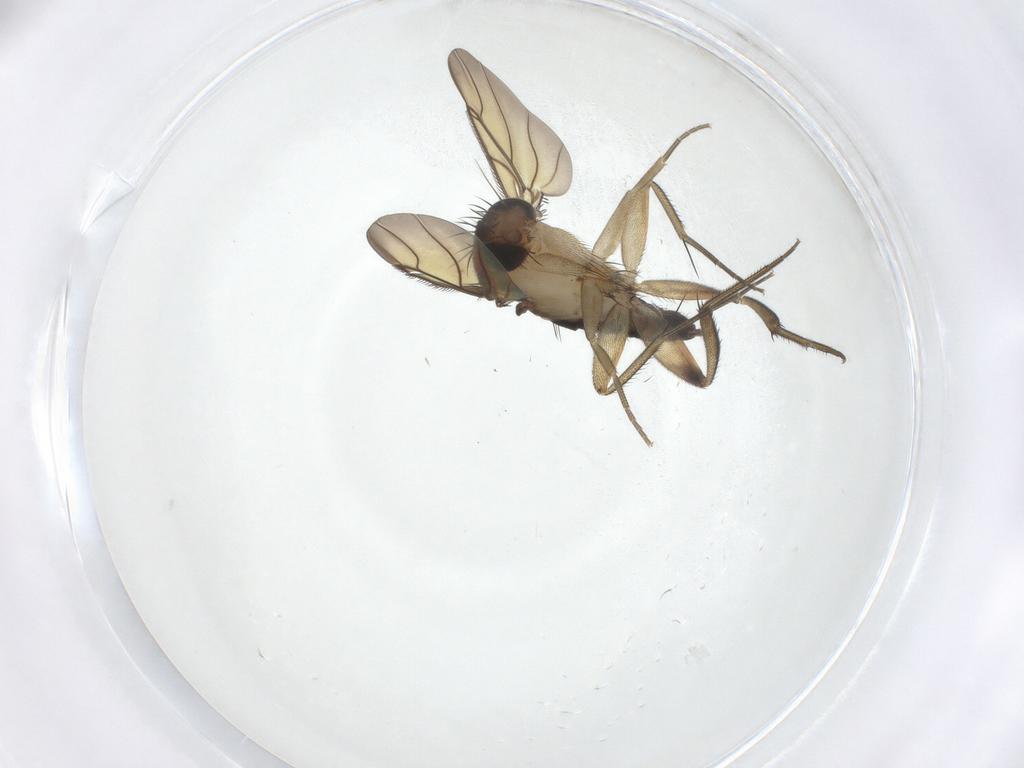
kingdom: Animalia
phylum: Arthropoda
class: Insecta
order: Diptera
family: Phoridae
